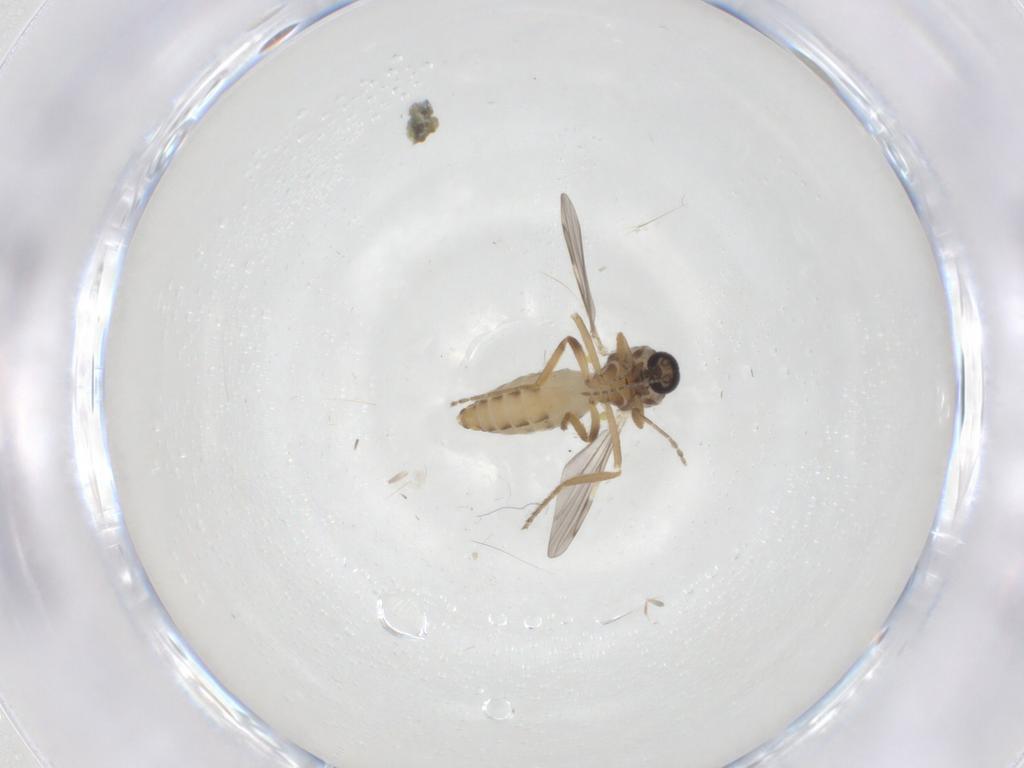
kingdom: Animalia
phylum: Arthropoda
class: Insecta
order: Diptera
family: Ceratopogonidae
